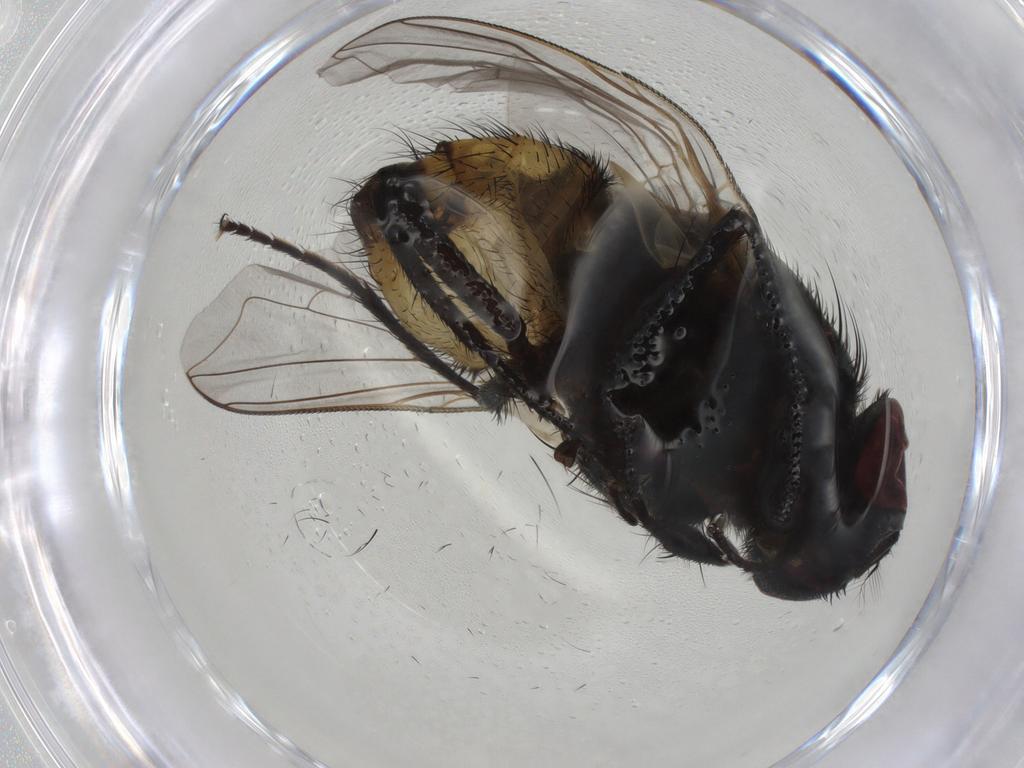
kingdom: Animalia
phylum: Arthropoda
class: Insecta
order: Diptera
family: Muscidae
